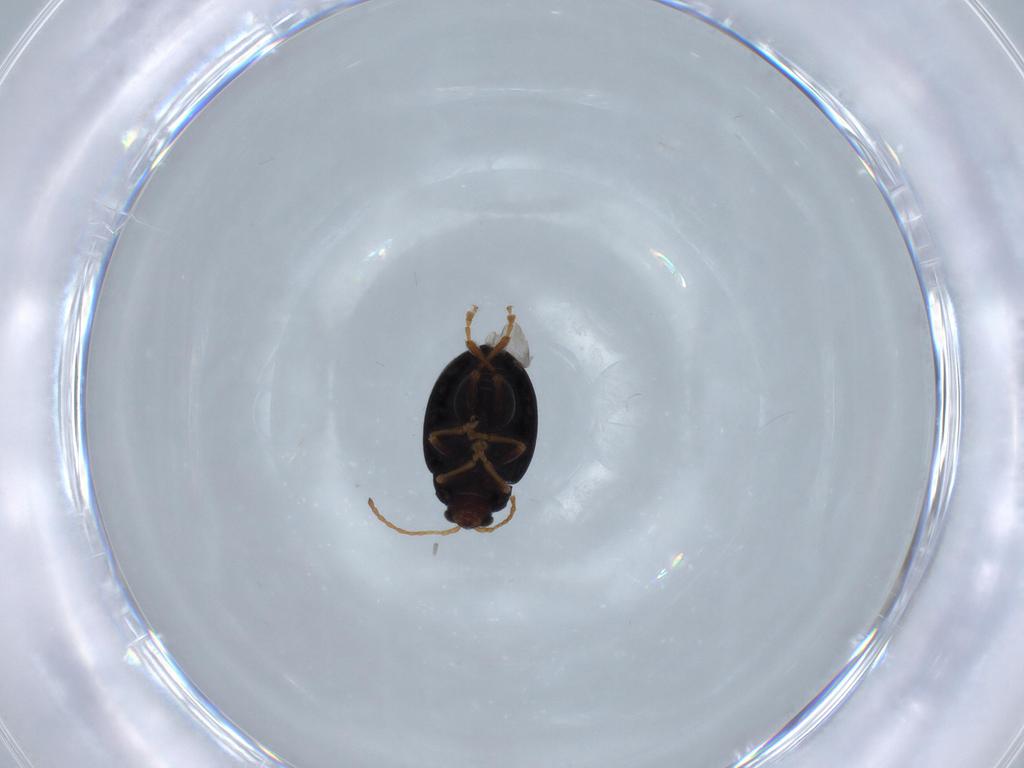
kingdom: Animalia
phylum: Arthropoda
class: Insecta
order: Coleoptera
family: Chrysomelidae
